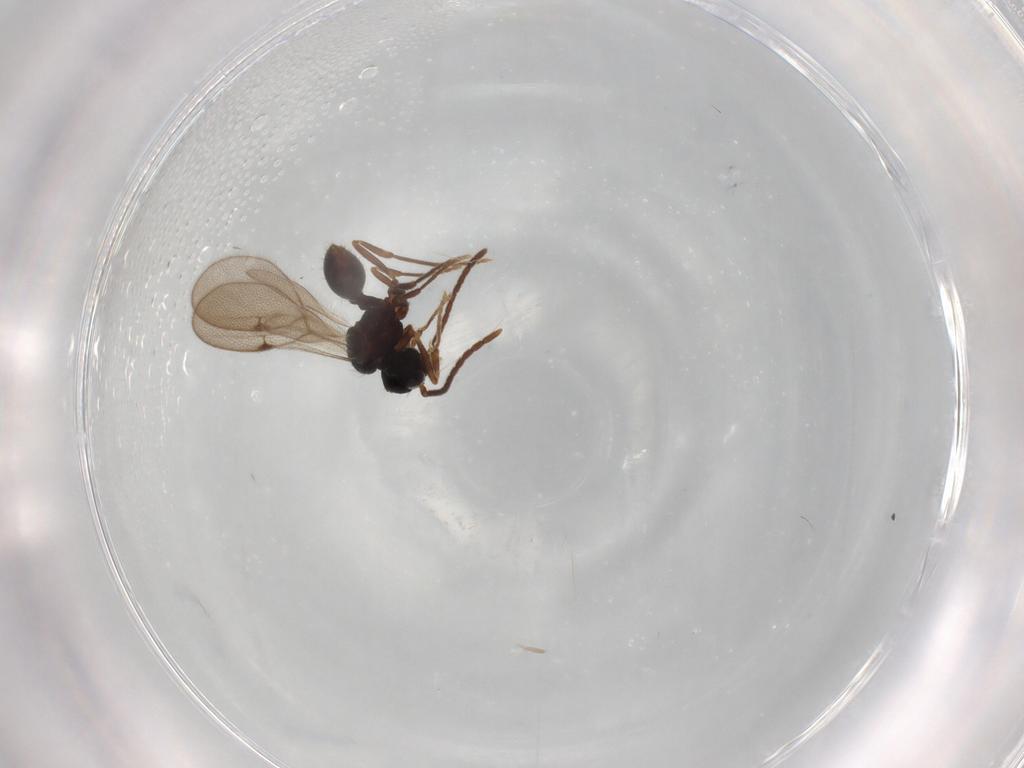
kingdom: Animalia
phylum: Arthropoda
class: Insecta
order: Hymenoptera
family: Formicidae
